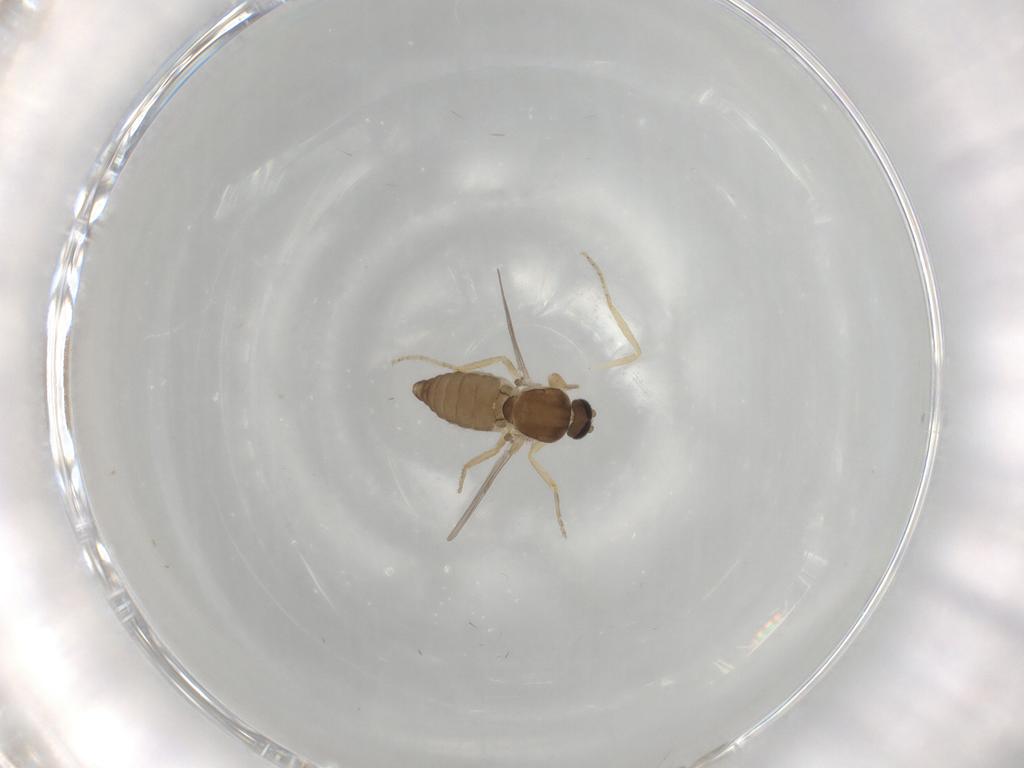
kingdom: Animalia
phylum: Arthropoda
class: Insecta
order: Diptera
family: Ceratopogonidae
